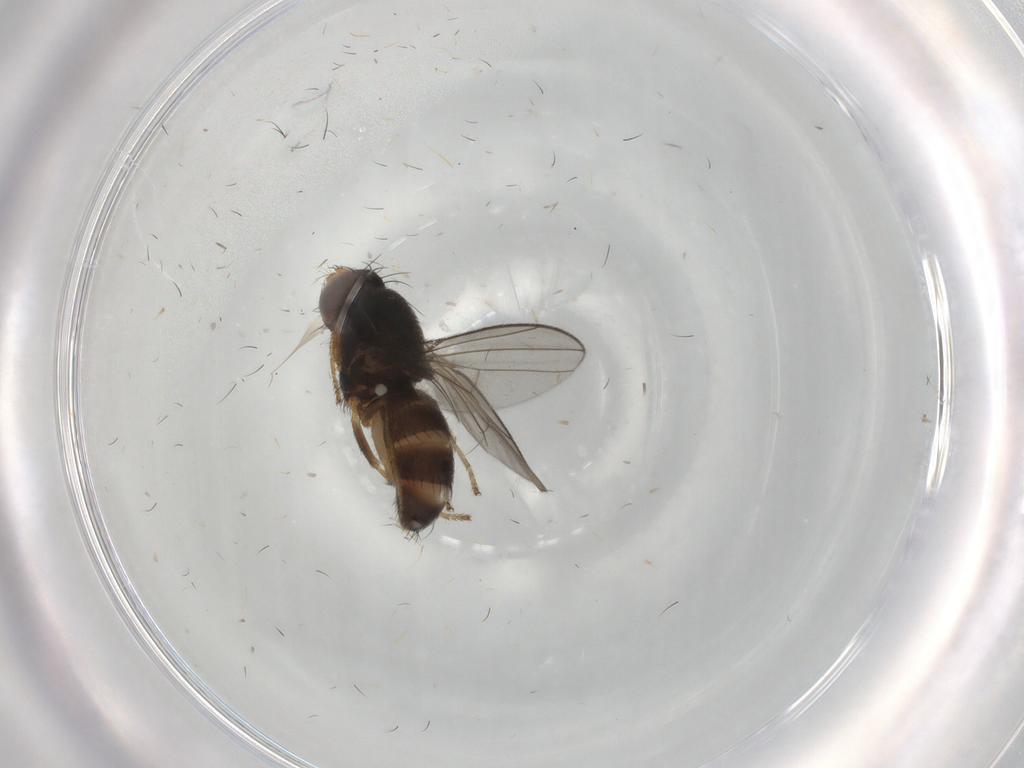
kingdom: Animalia
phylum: Arthropoda
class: Insecta
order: Diptera
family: Ephydridae
